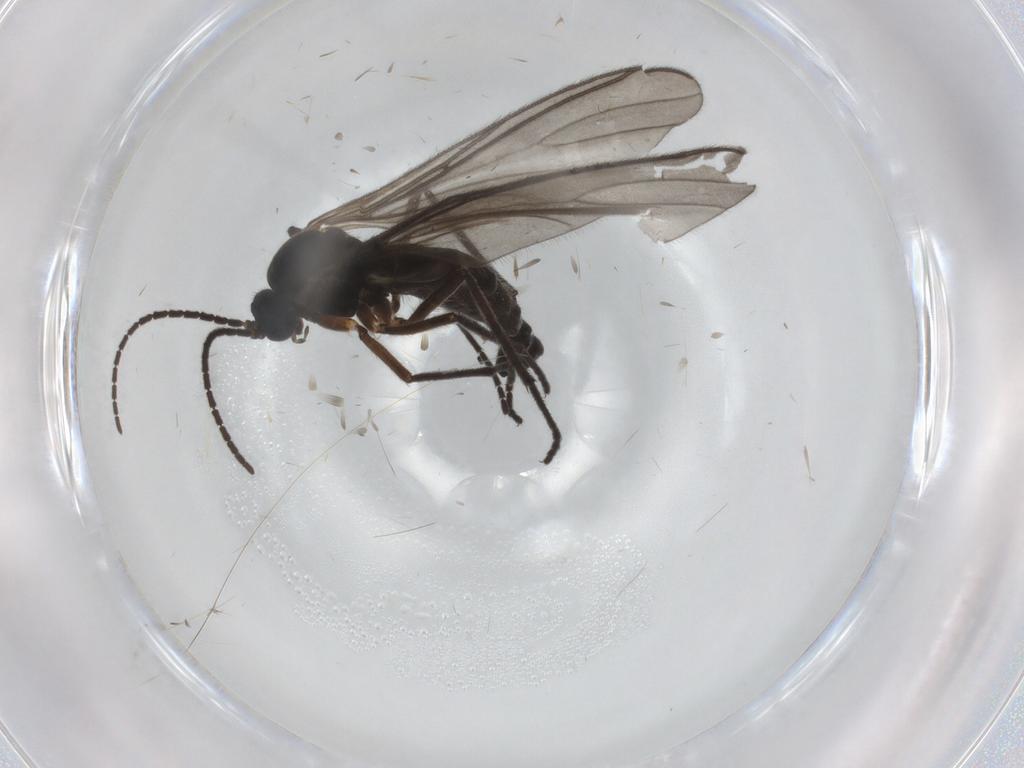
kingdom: Animalia
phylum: Arthropoda
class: Insecta
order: Diptera
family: Sciaridae
